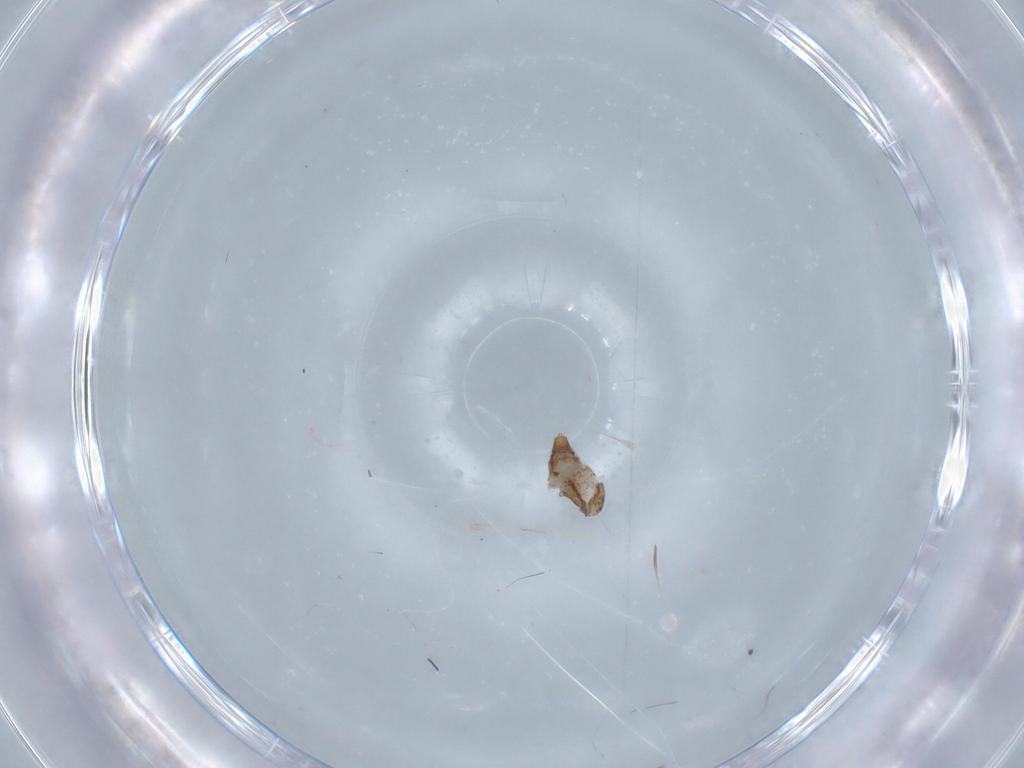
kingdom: Animalia
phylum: Arthropoda
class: Insecta
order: Diptera
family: Chironomidae
